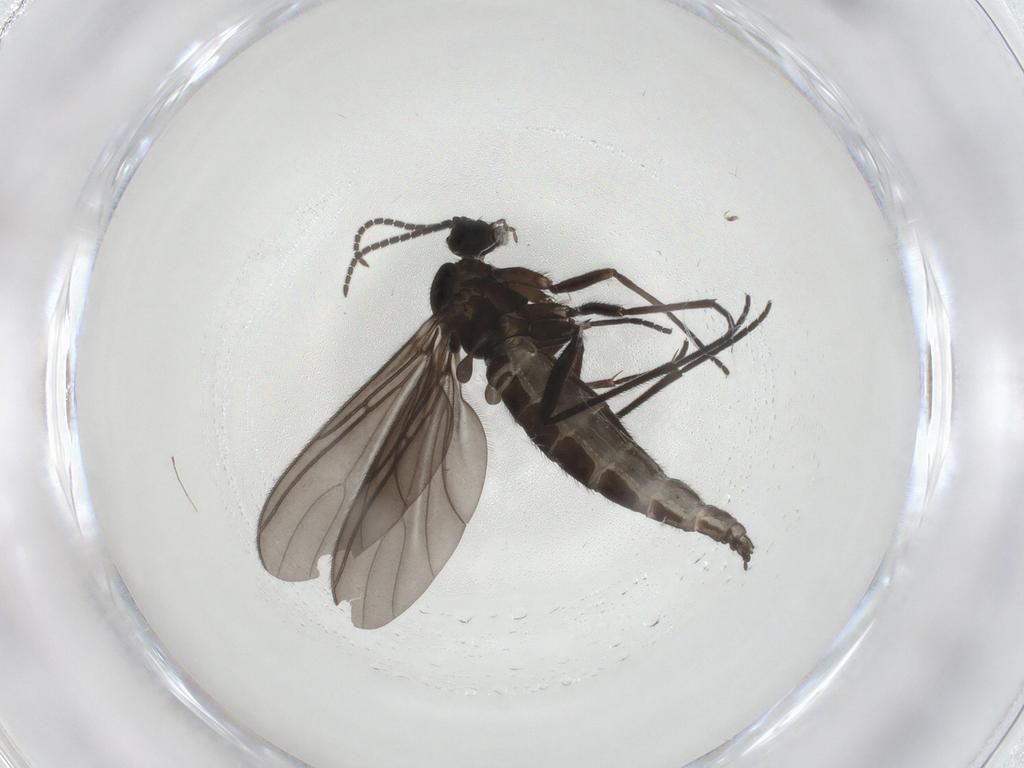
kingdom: Animalia
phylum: Arthropoda
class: Insecta
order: Diptera
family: Sciaridae
